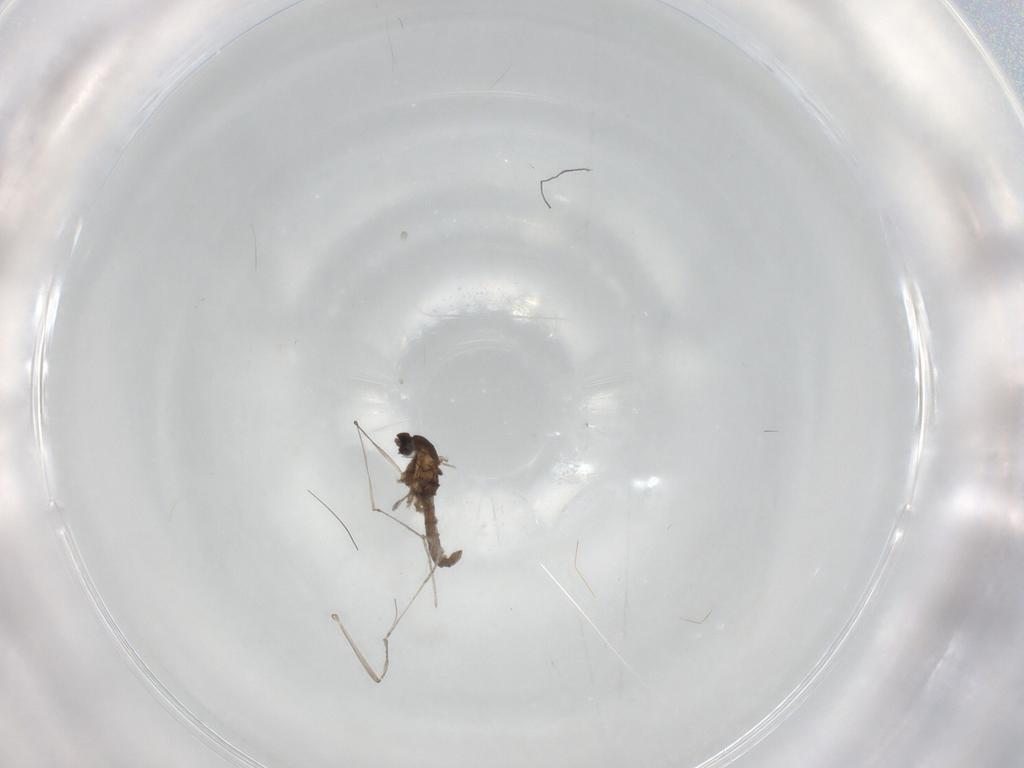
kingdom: Animalia
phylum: Arthropoda
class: Insecta
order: Diptera
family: Cecidomyiidae
